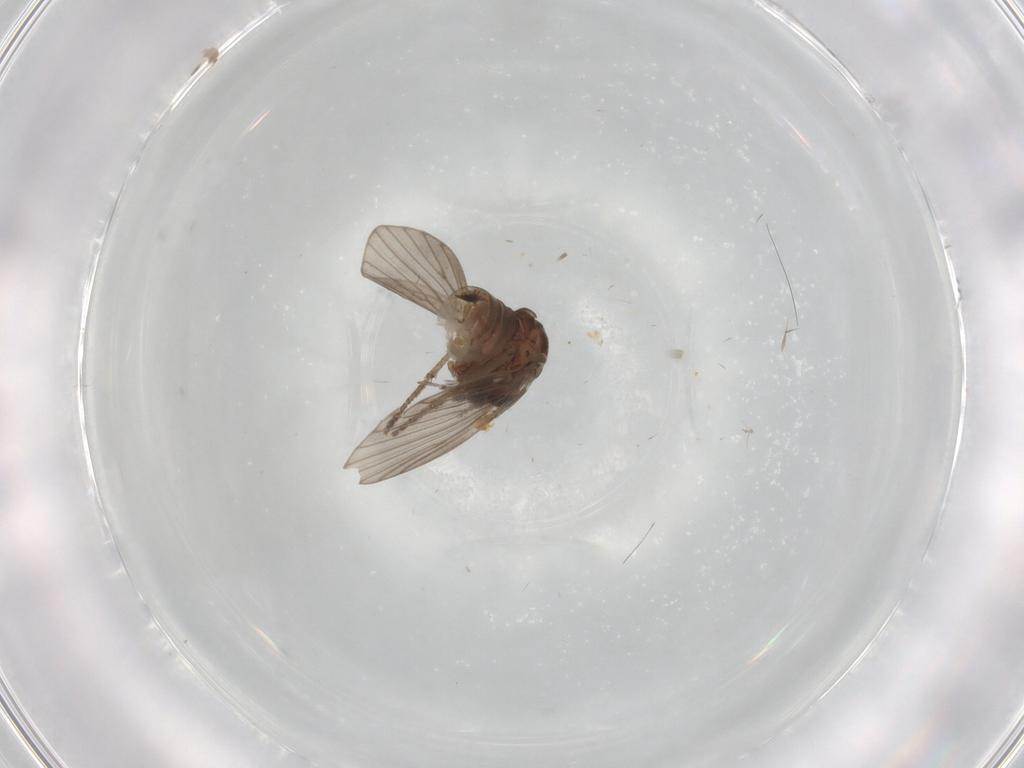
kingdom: Animalia
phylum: Arthropoda
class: Insecta
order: Diptera
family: Psychodidae
